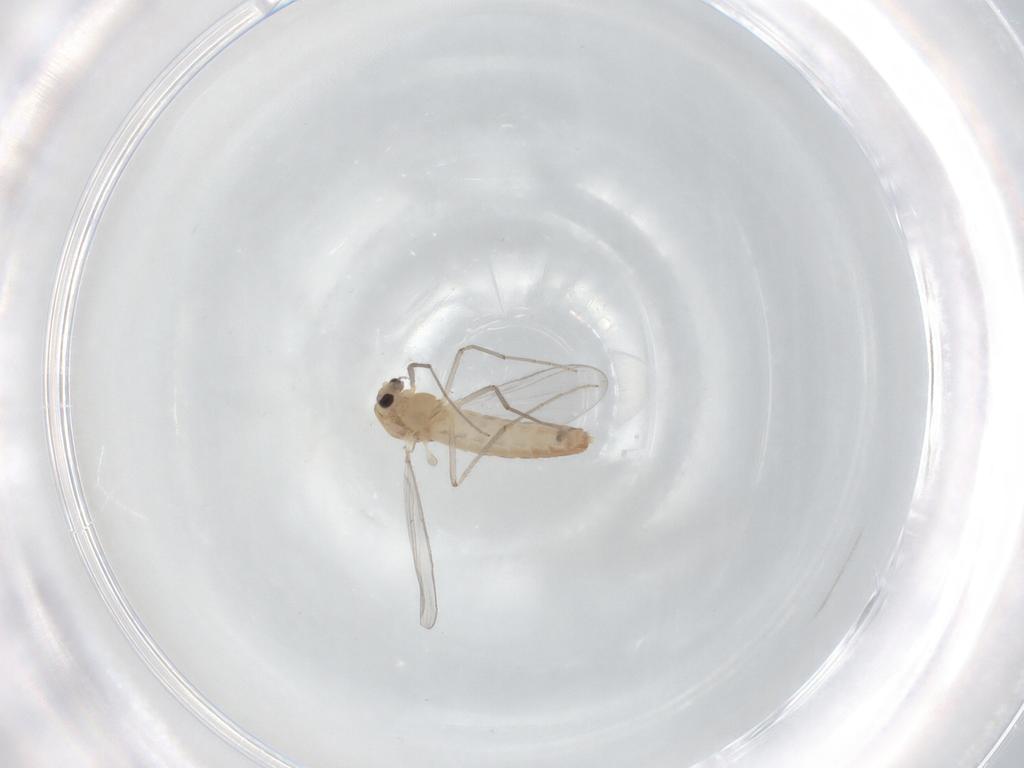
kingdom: Animalia
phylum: Arthropoda
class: Insecta
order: Diptera
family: Chironomidae
